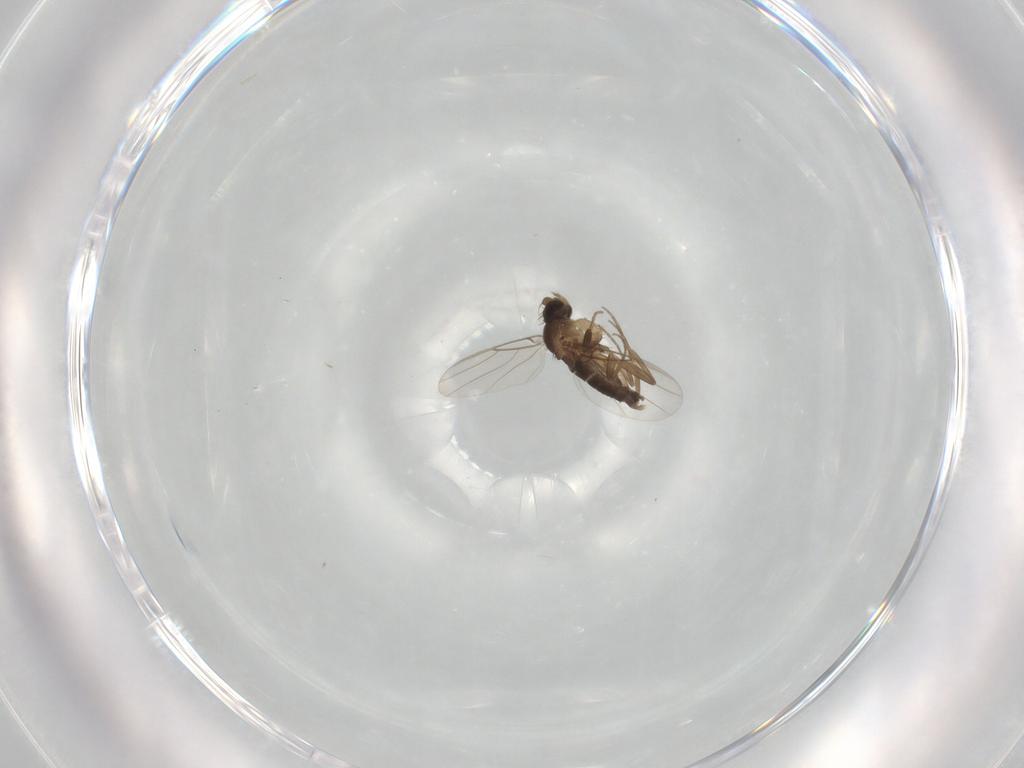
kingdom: Animalia
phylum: Arthropoda
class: Insecta
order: Diptera
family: Phoridae
